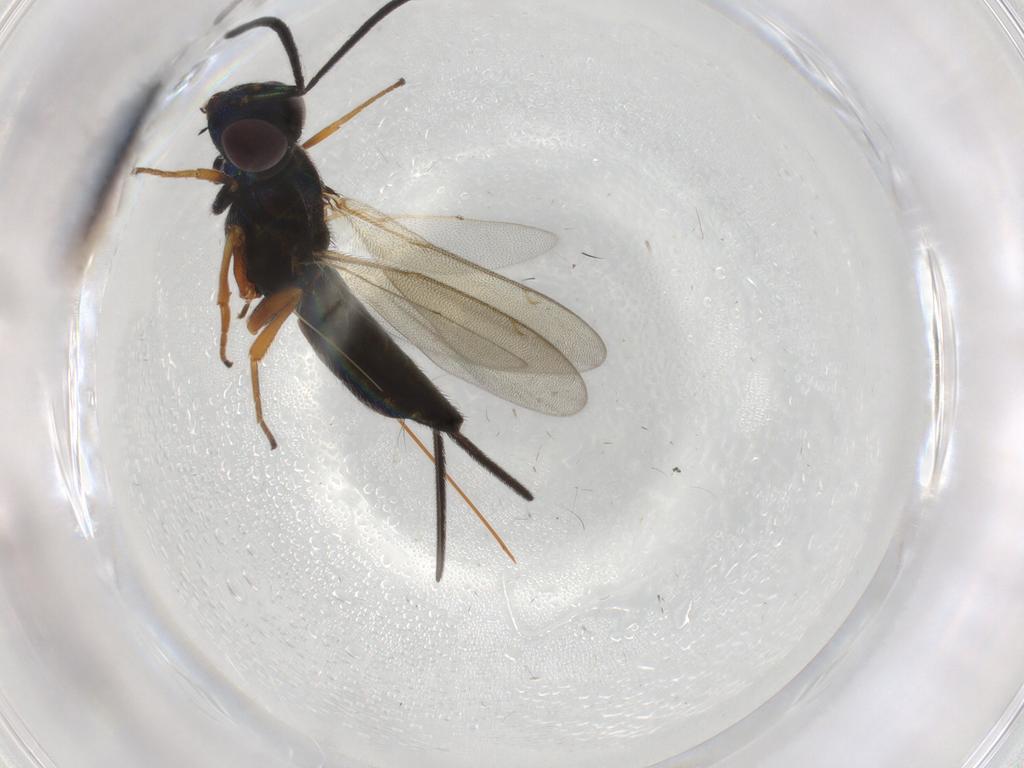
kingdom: Animalia
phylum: Arthropoda
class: Insecta
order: Hymenoptera
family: Eupelmidae
